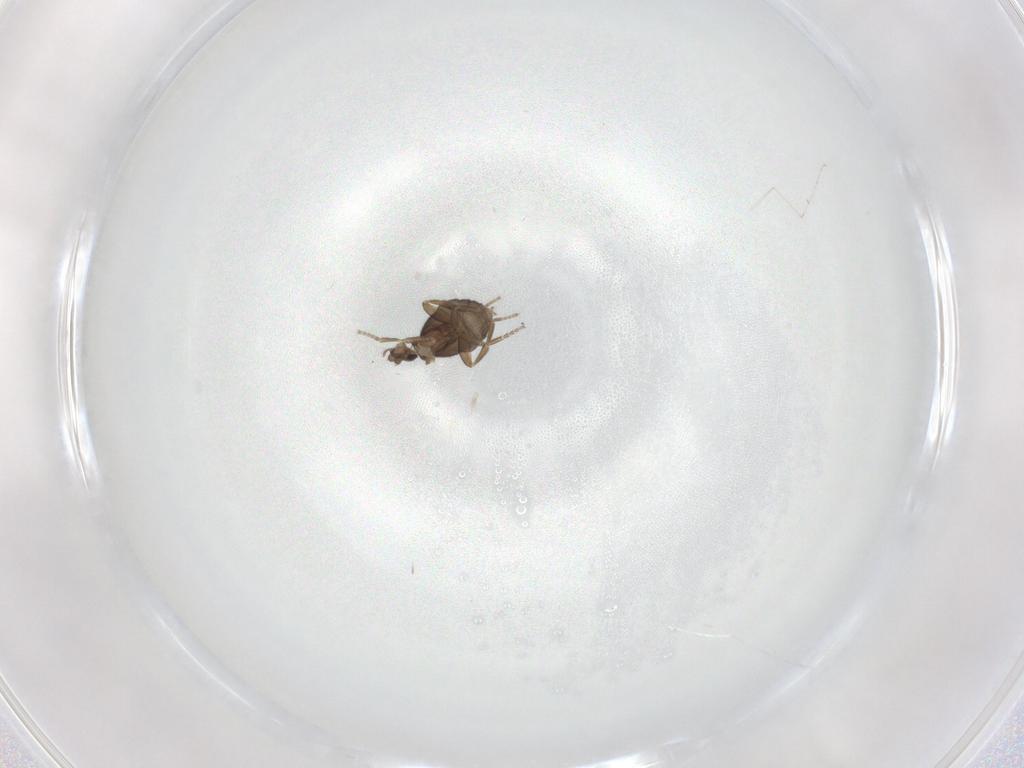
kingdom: Animalia
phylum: Arthropoda
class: Insecta
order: Diptera
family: Phoridae
